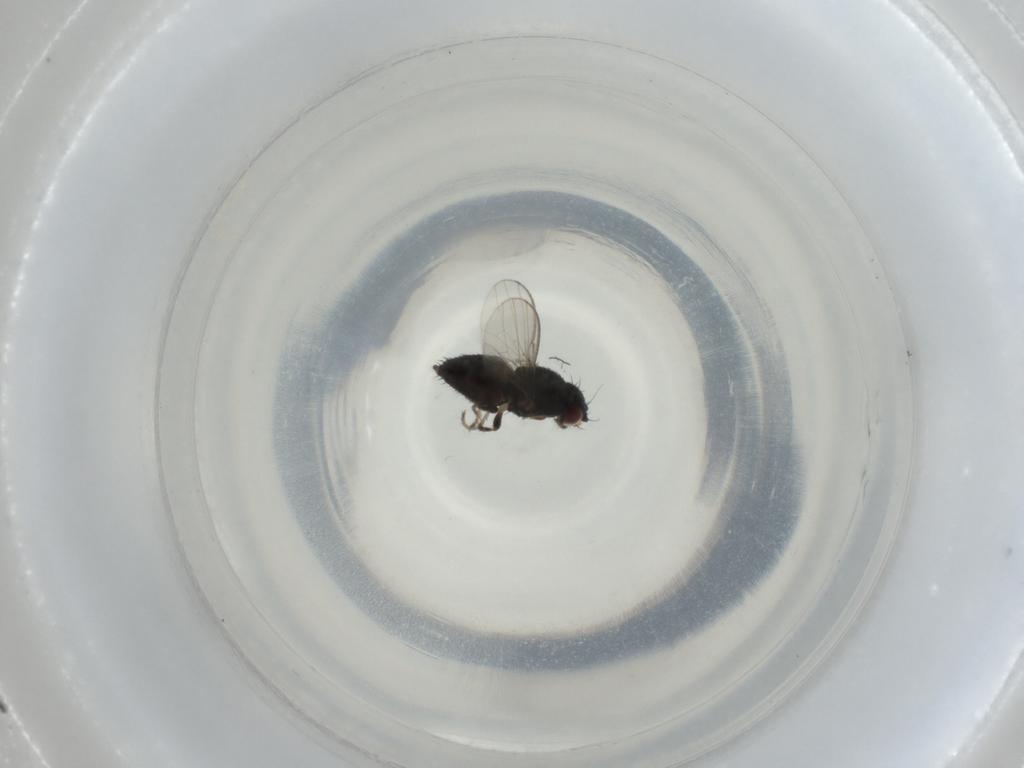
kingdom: Animalia
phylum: Arthropoda
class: Insecta
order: Diptera
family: Milichiidae
